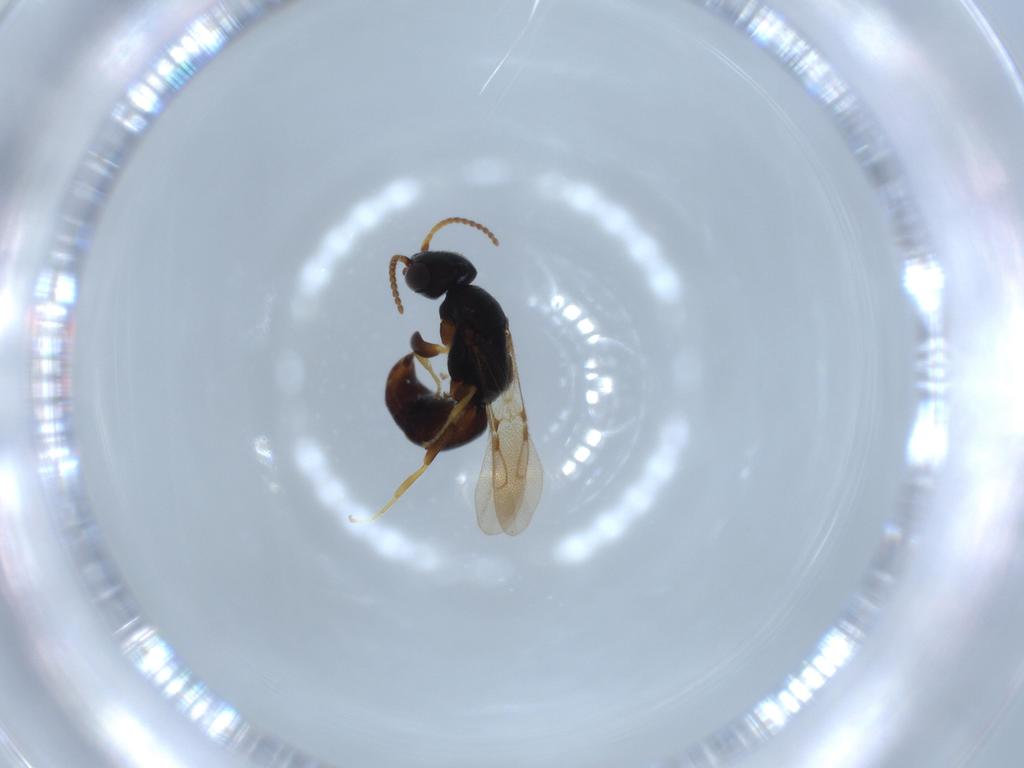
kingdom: Animalia
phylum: Arthropoda
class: Insecta
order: Hymenoptera
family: Bethylidae
